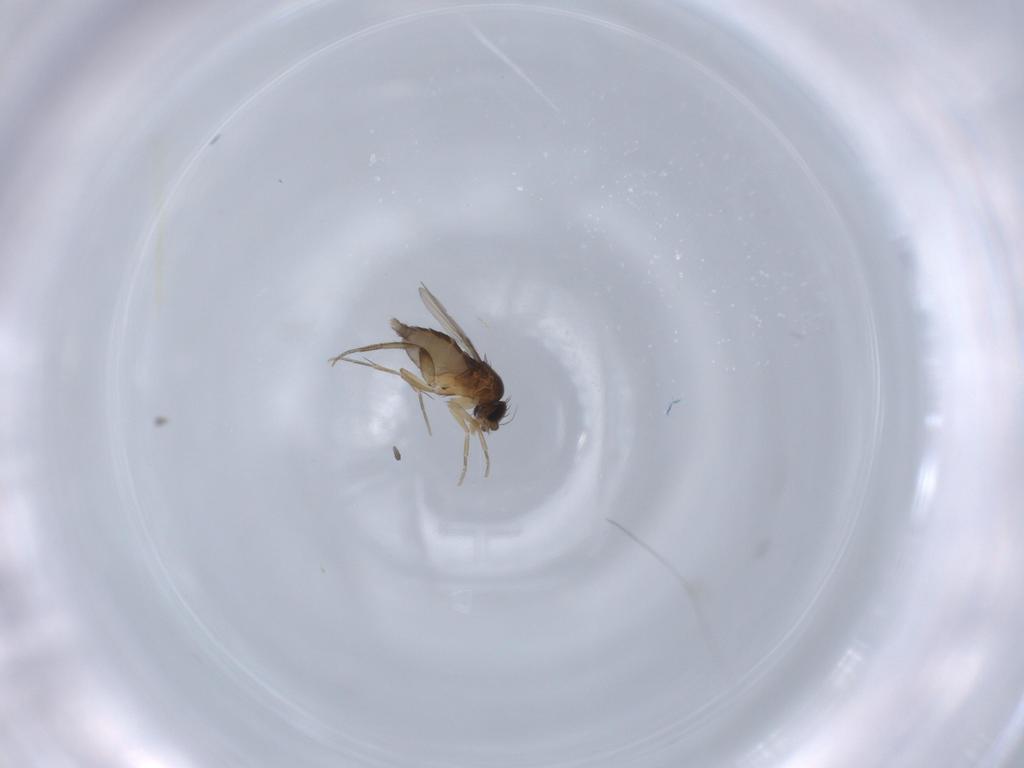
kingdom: Animalia
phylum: Arthropoda
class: Insecta
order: Diptera
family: Phoridae
